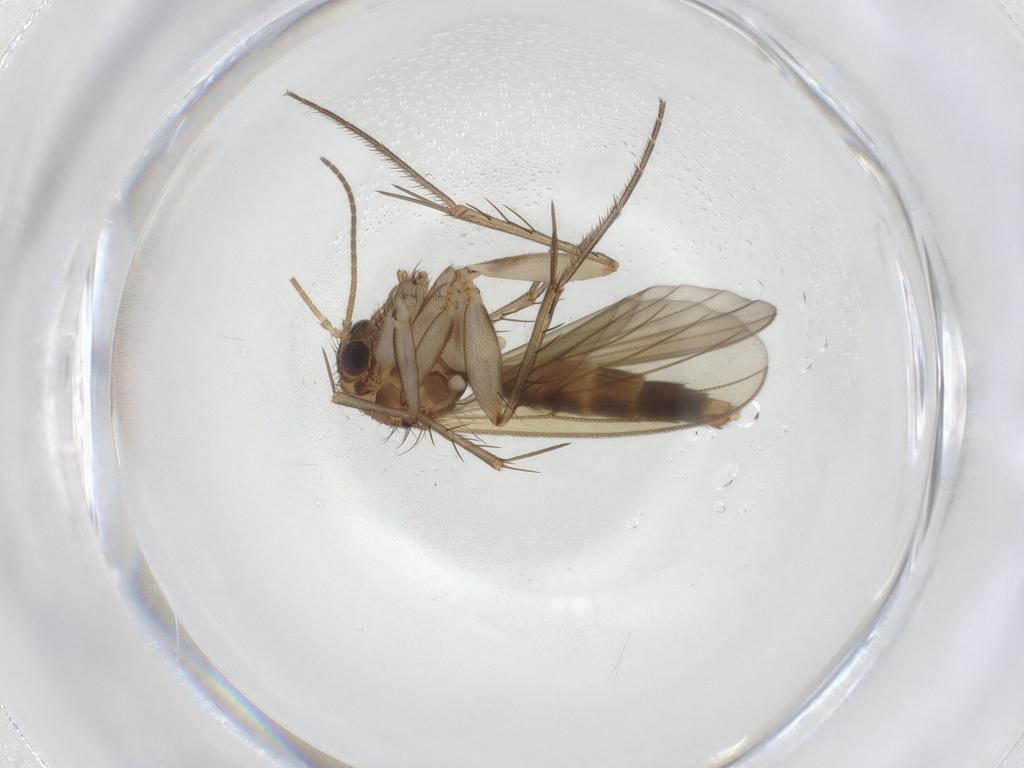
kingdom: Animalia
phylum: Arthropoda
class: Insecta
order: Diptera
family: Mycetophilidae
